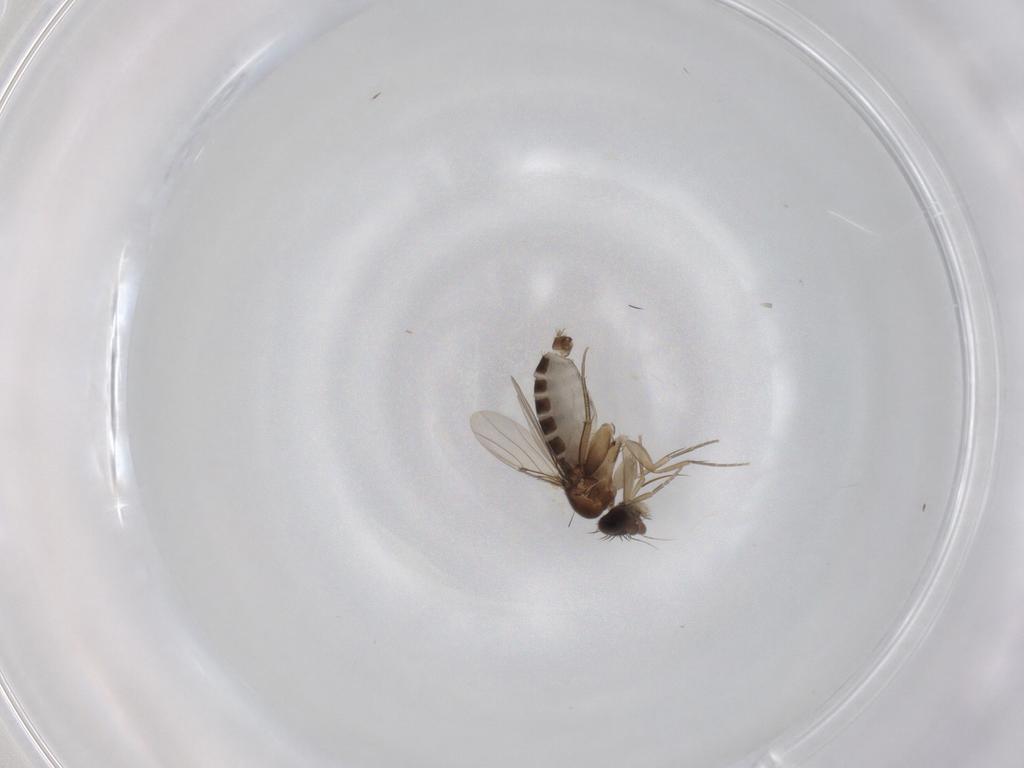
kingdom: Animalia
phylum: Arthropoda
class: Insecta
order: Diptera
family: Phoridae
